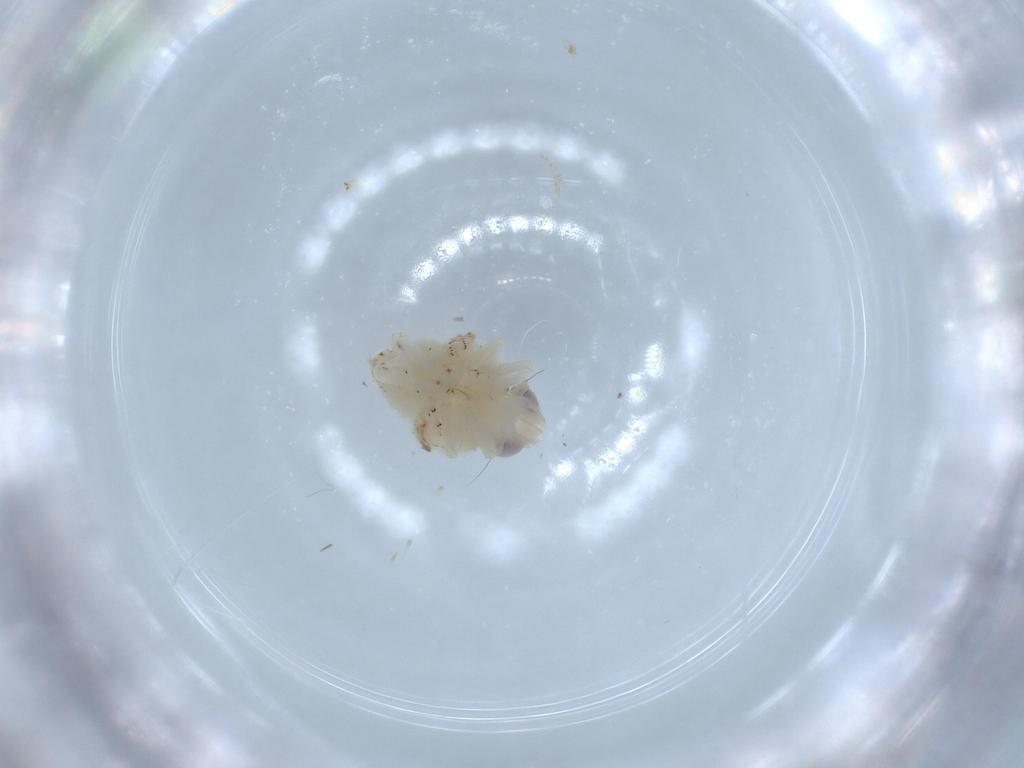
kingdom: Animalia
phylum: Arthropoda
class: Insecta
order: Hemiptera
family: Nogodinidae
